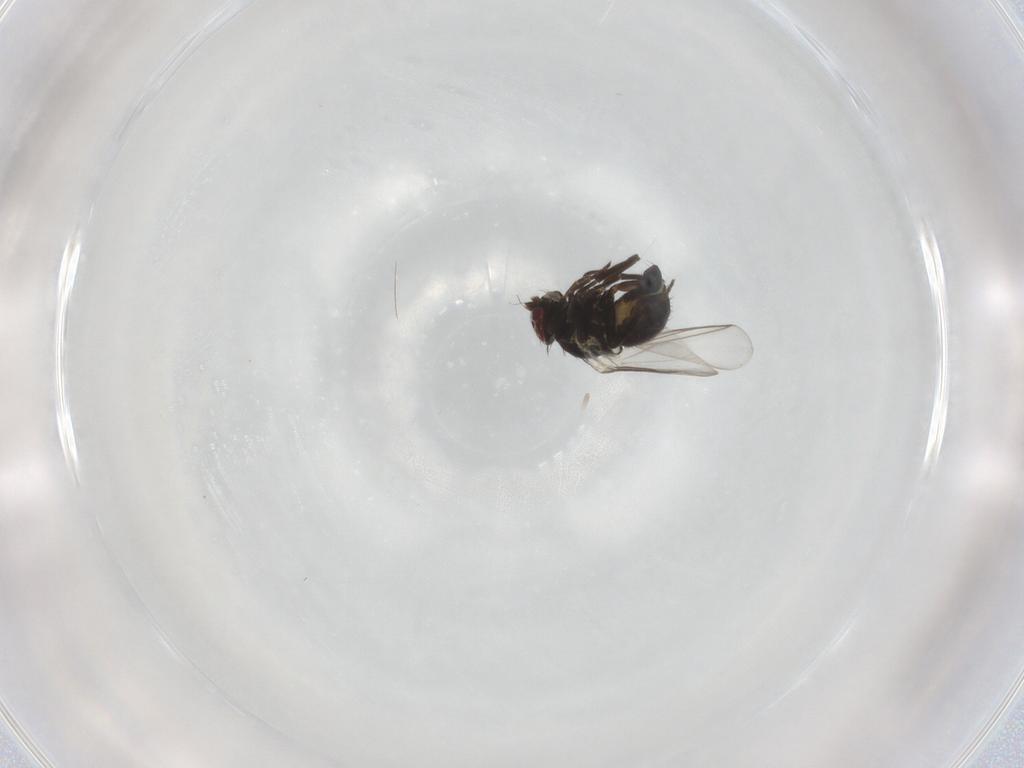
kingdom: Animalia
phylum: Arthropoda
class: Insecta
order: Diptera
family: Agromyzidae
